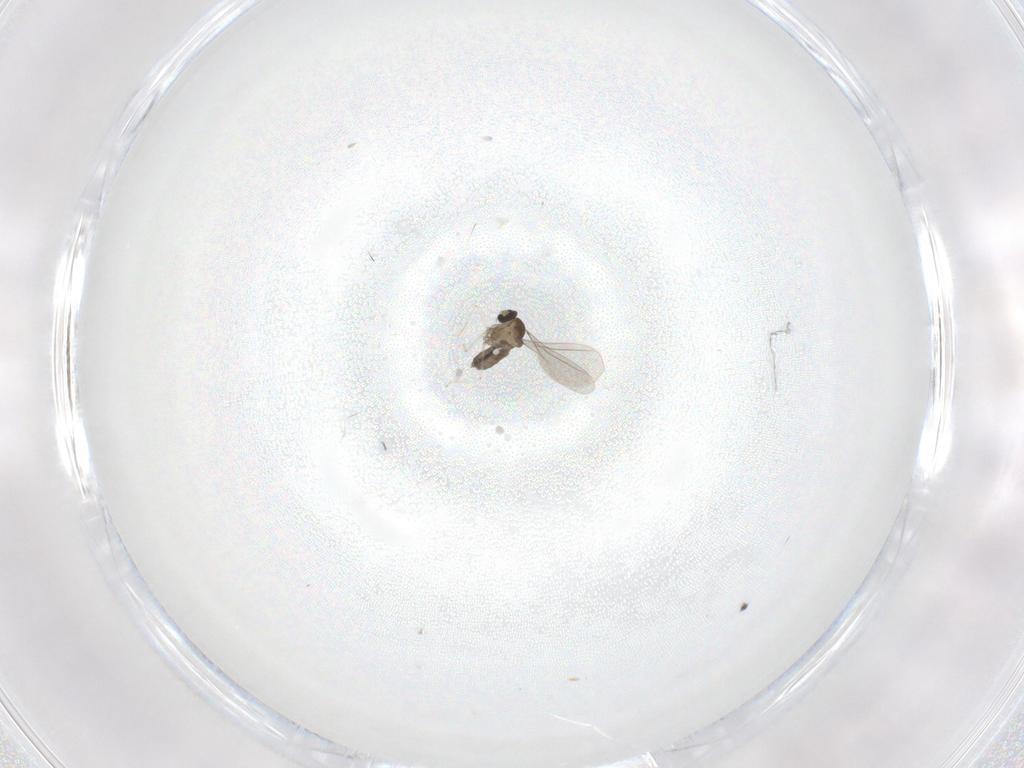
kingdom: Animalia
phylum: Arthropoda
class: Insecta
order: Diptera
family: Cecidomyiidae
